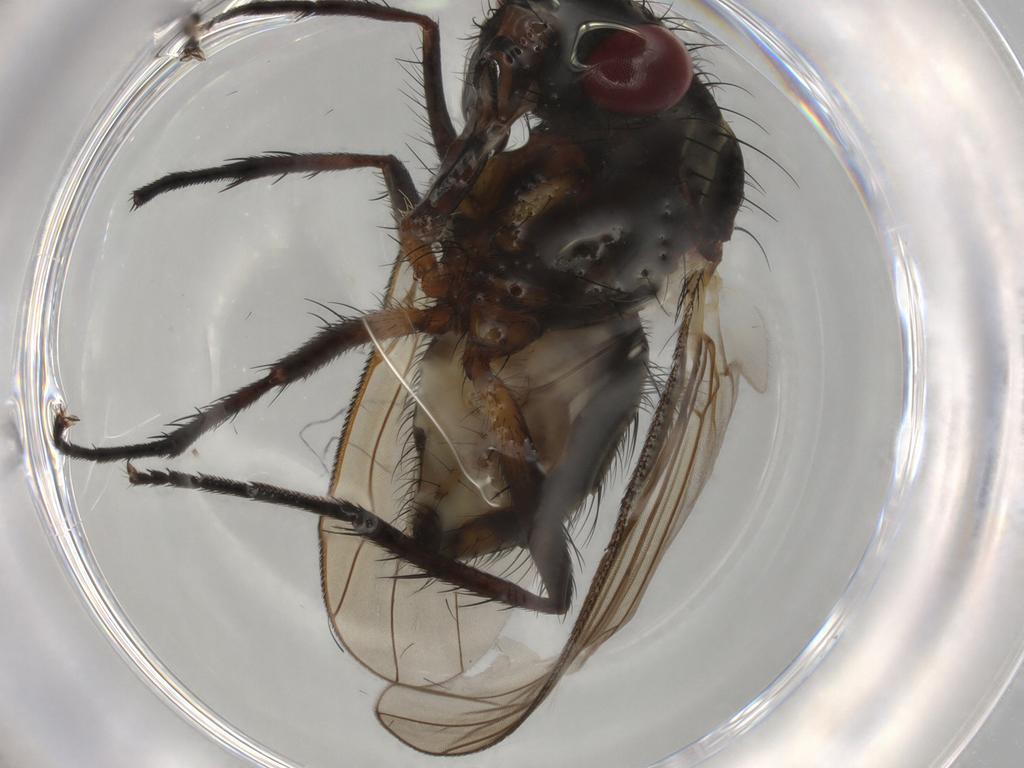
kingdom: Animalia
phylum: Arthropoda
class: Insecta
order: Diptera
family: Anthomyiidae
